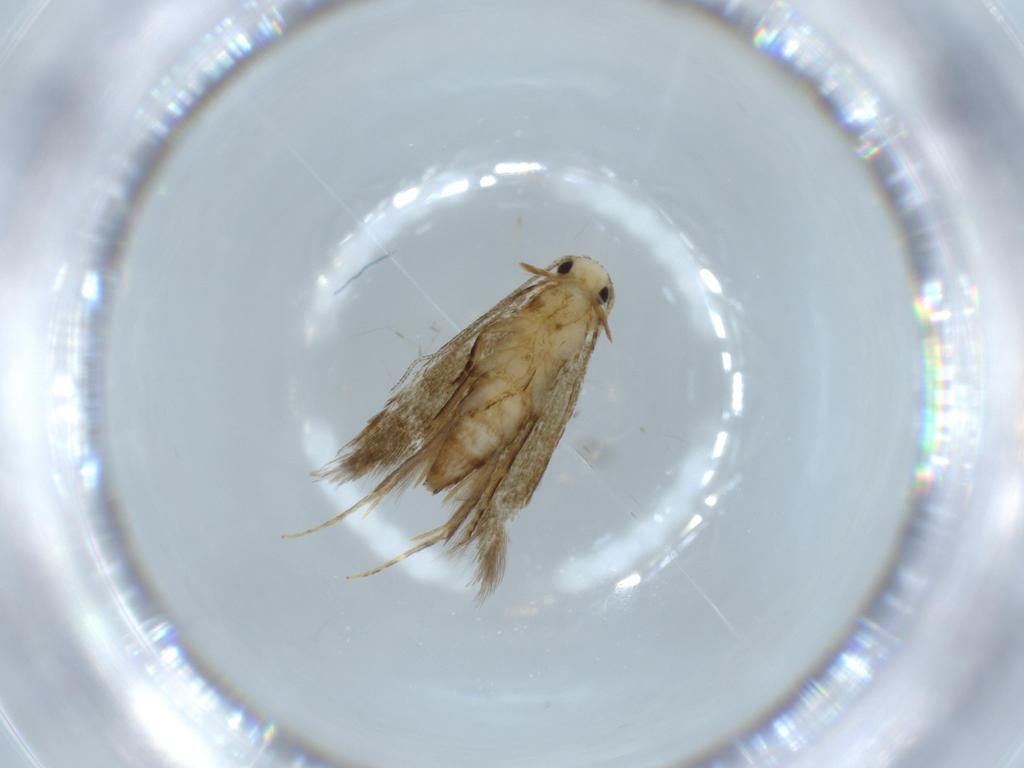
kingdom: Animalia
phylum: Arthropoda
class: Insecta
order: Lepidoptera
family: Tineidae
